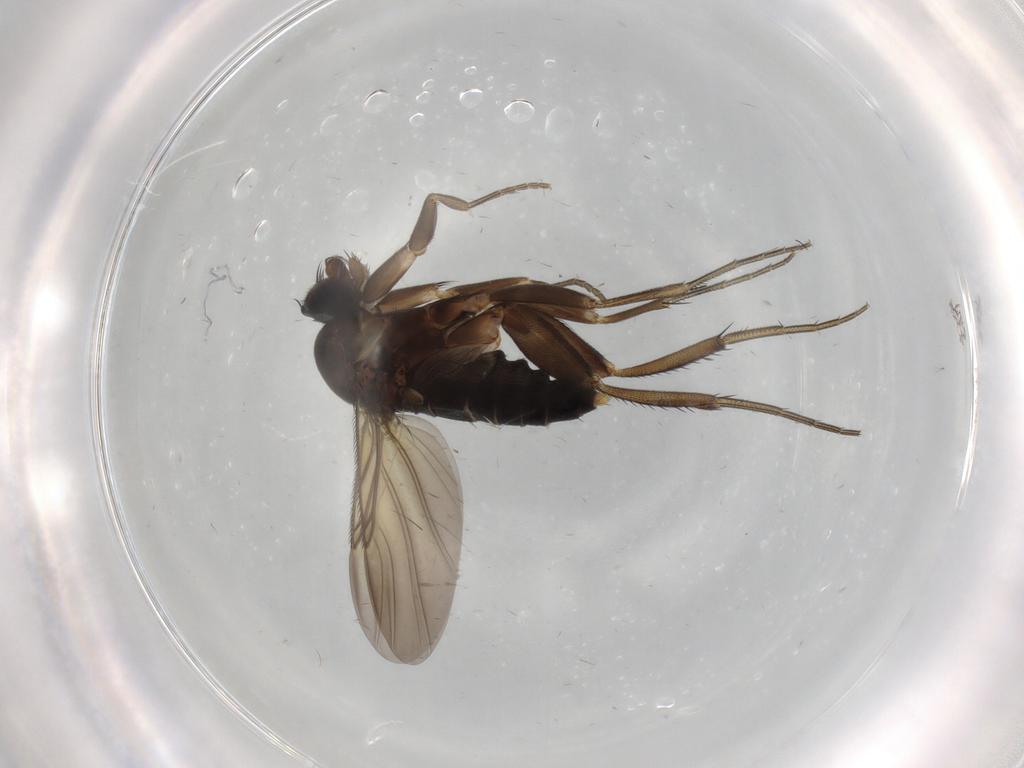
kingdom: Animalia
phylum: Arthropoda
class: Insecta
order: Diptera
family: Phoridae
